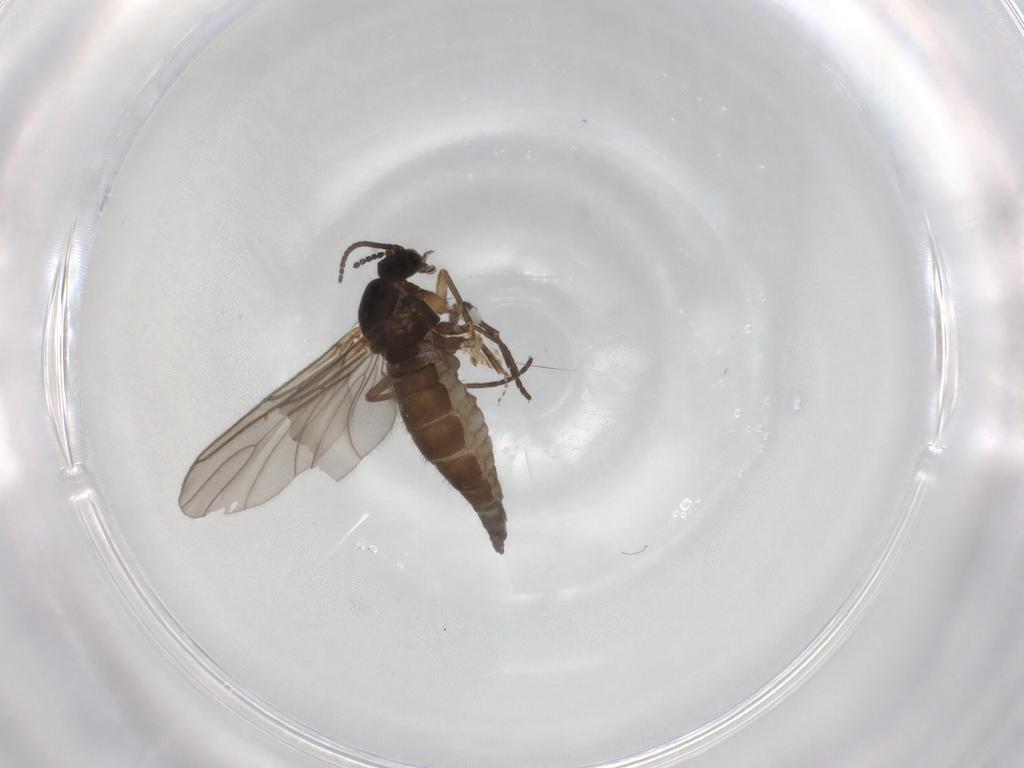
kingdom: Animalia
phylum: Arthropoda
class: Insecta
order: Diptera
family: Sciaridae
